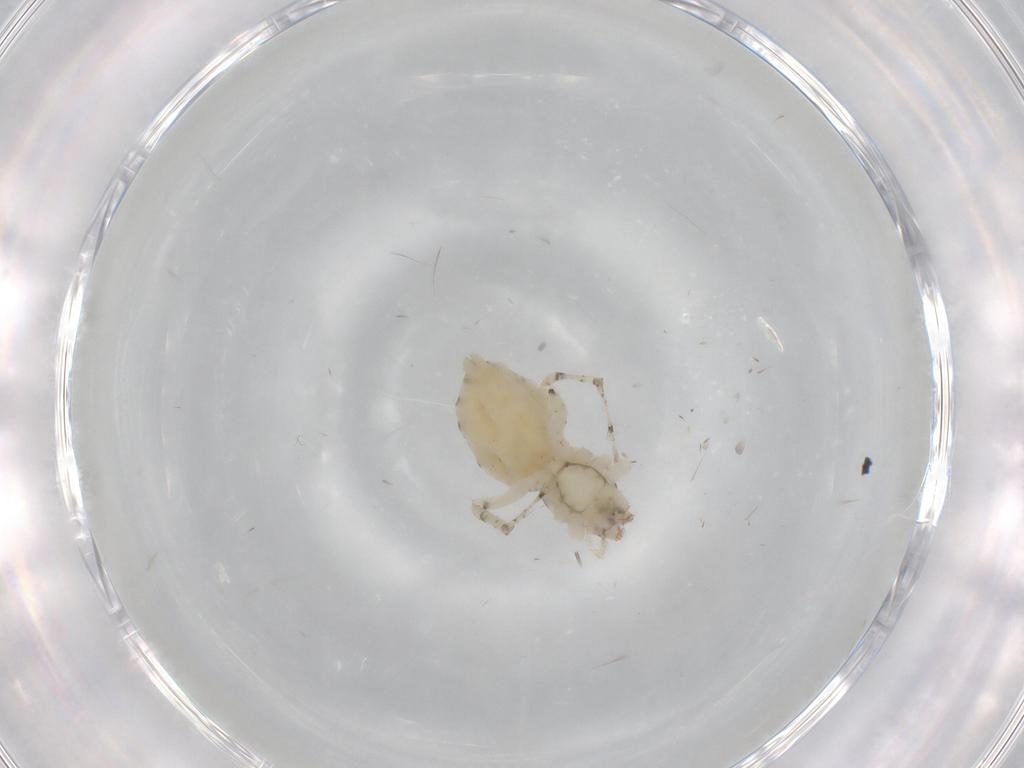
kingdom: Animalia
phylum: Arthropoda
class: Arachnida
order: Araneae
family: Anyphaenidae
